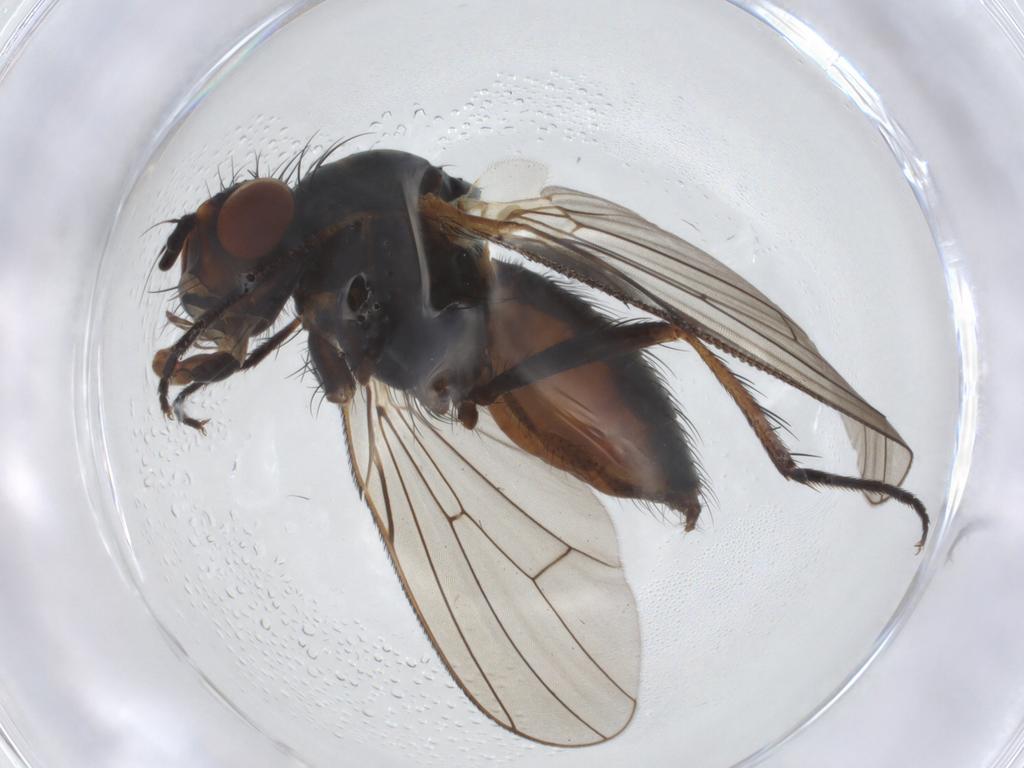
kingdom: Animalia
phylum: Arthropoda
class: Insecta
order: Diptera
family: Anthomyiidae
